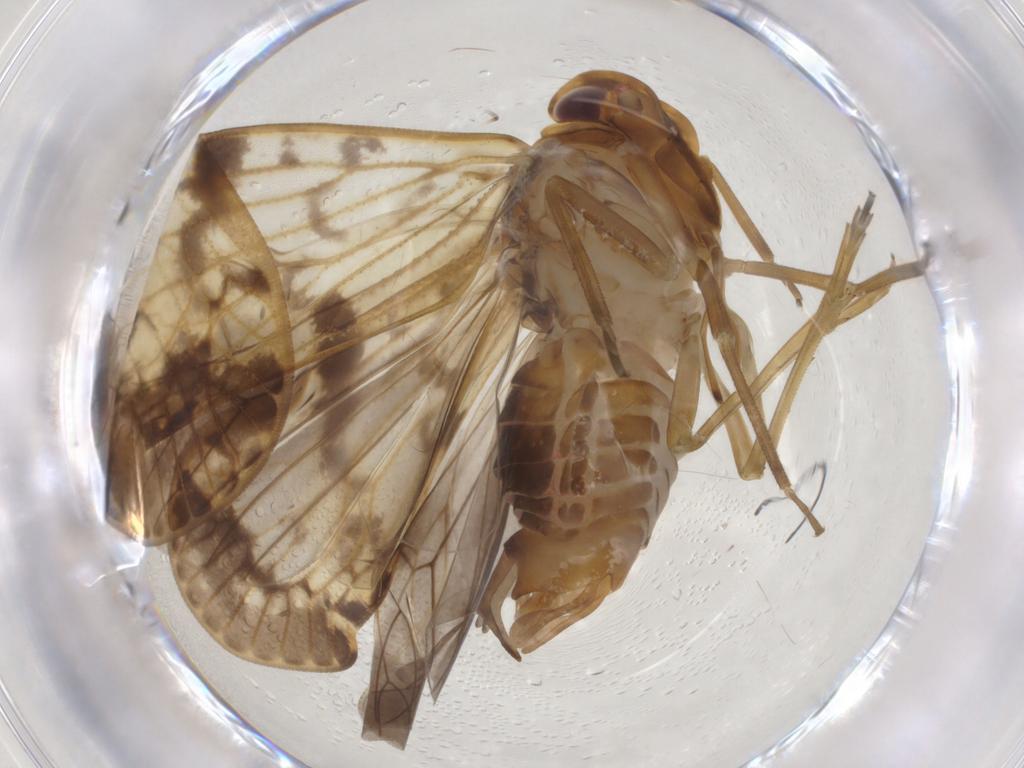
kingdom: Animalia
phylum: Arthropoda
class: Insecta
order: Hemiptera
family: Cixiidae
